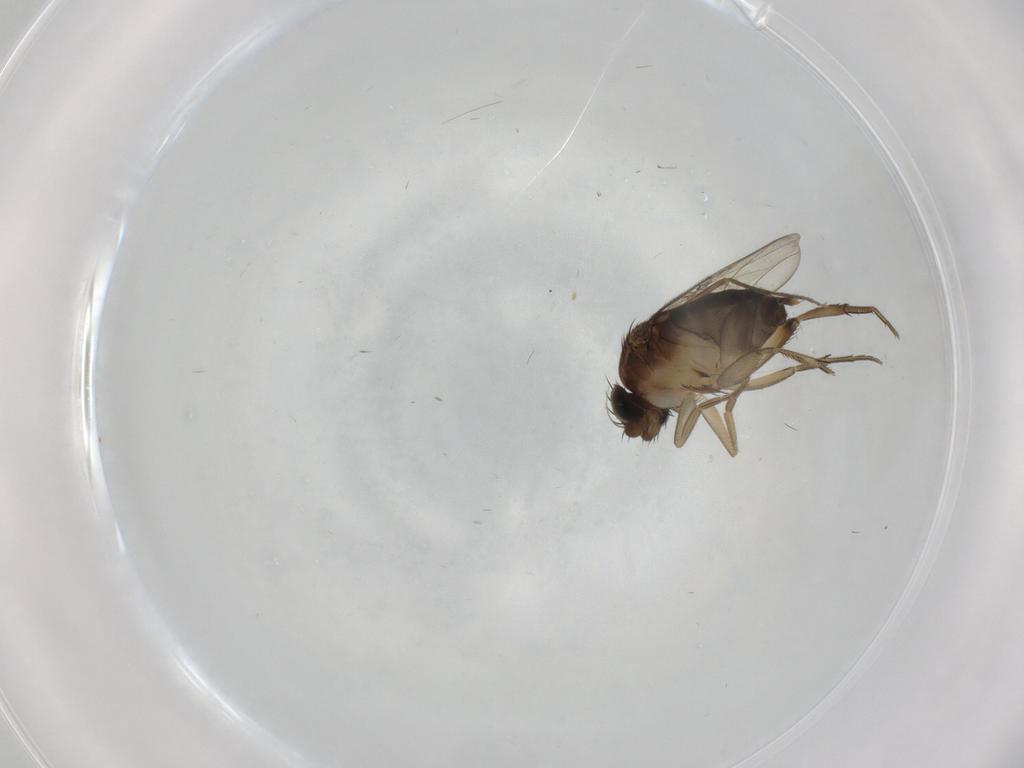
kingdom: Animalia
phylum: Arthropoda
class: Insecta
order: Diptera
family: Phoridae
